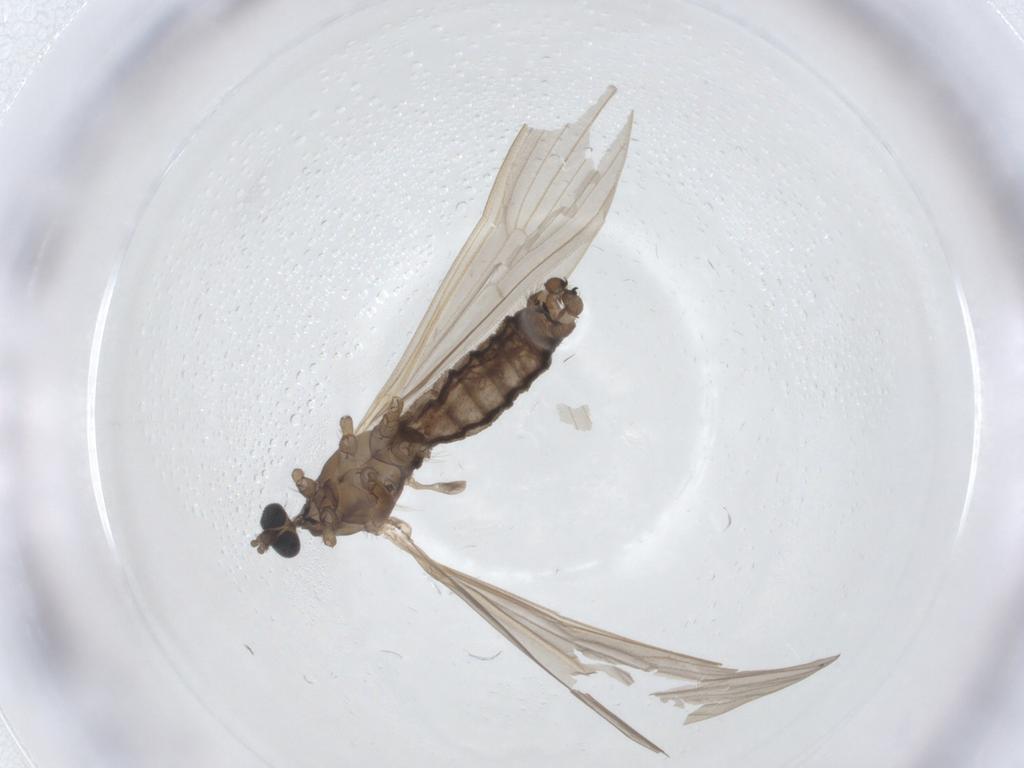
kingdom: Animalia
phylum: Arthropoda
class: Insecta
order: Diptera
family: Limoniidae
